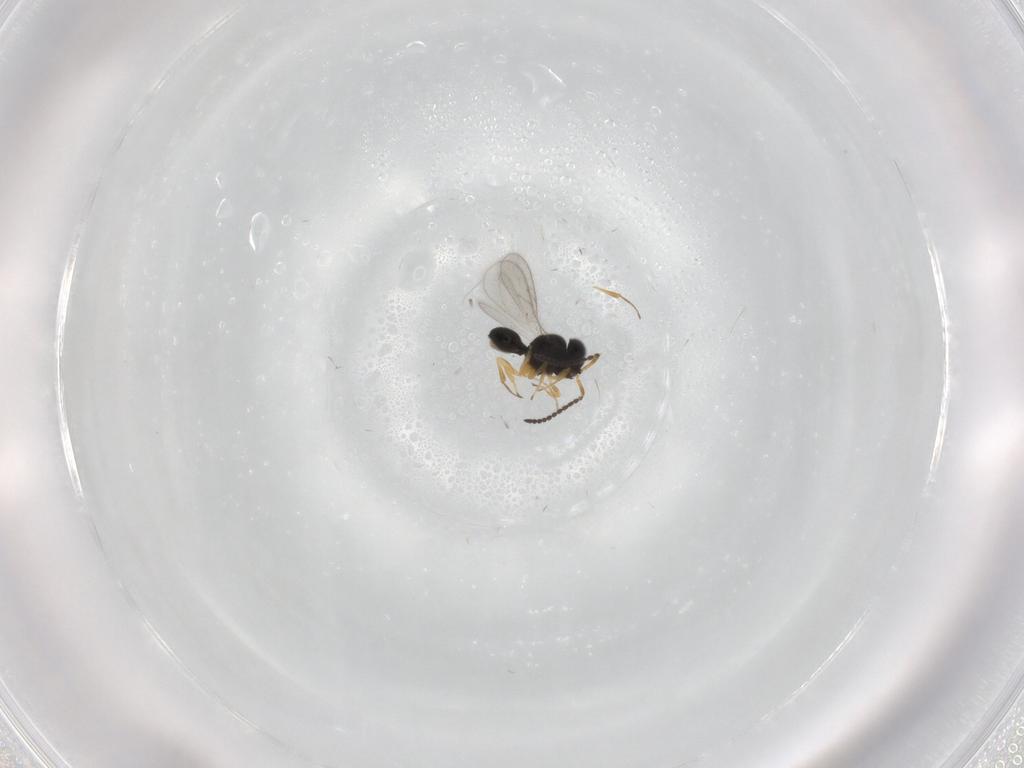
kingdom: Animalia
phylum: Arthropoda
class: Insecta
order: Hymenoptera
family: Scelionidae
